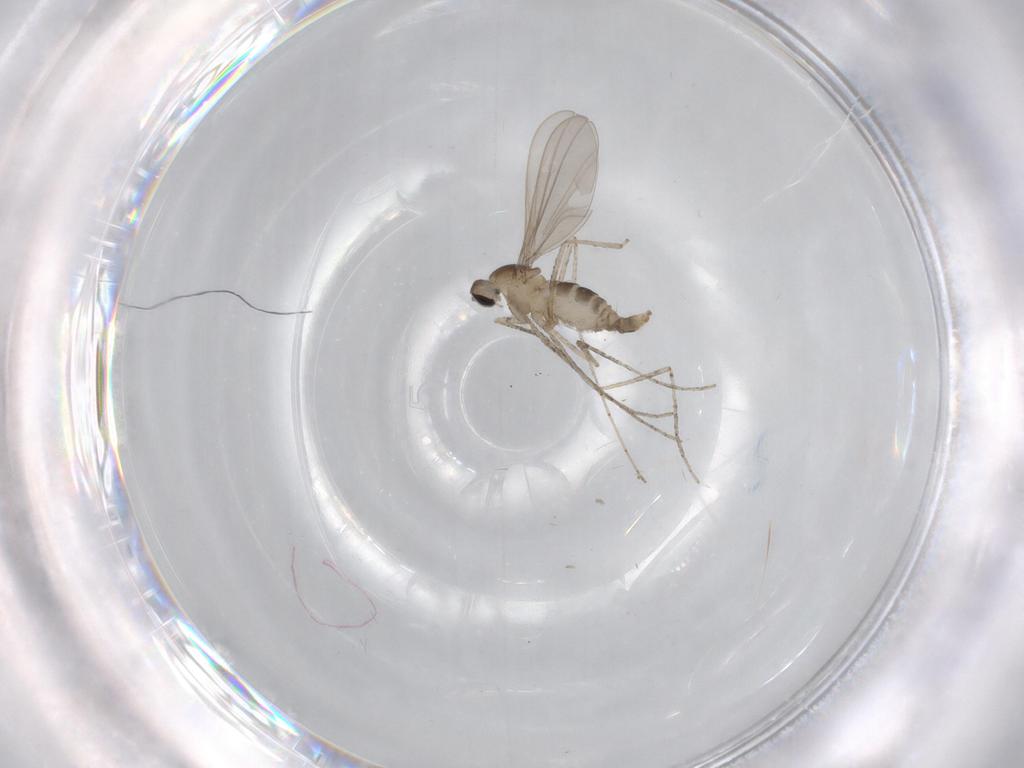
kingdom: Animalia
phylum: Arthropoda
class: Insecta
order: Diptera
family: Cecidomyiidae
